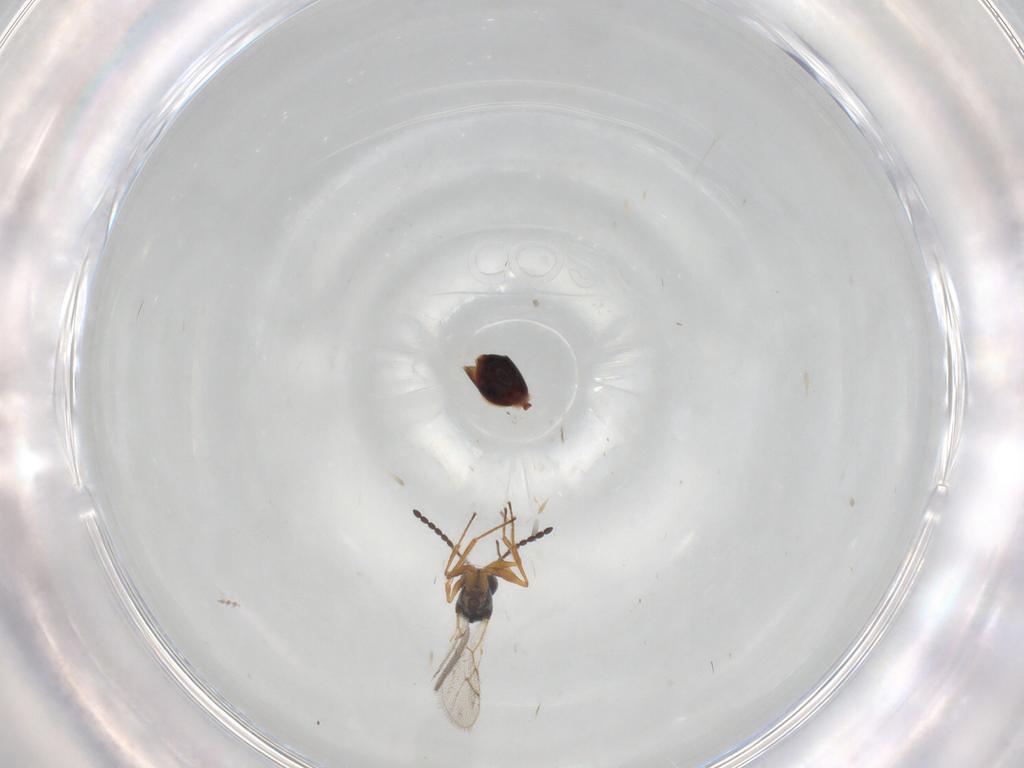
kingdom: Animalia
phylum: Arthropoda
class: Insecta
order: Hymenoptera
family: Figitidae
